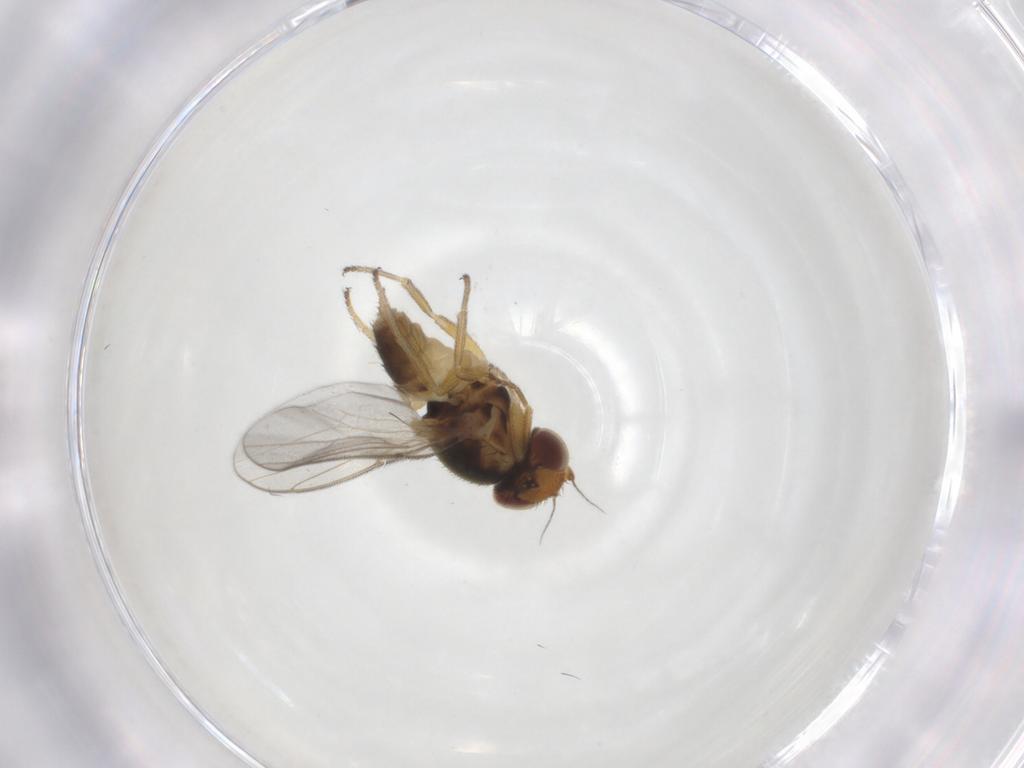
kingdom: Animalia
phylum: Arthropoda
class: Insecta
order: Diptera
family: Chloropidae
